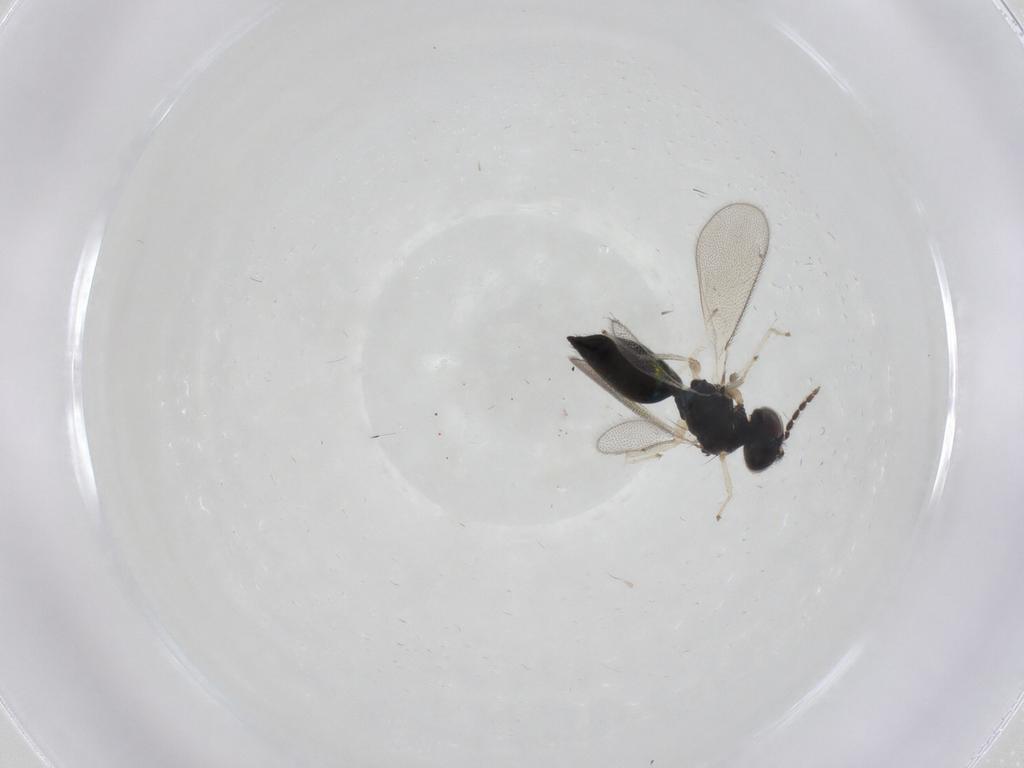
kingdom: Animalia
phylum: Arthropoda
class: Insecta
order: Hymenoptera
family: Eulophidae
